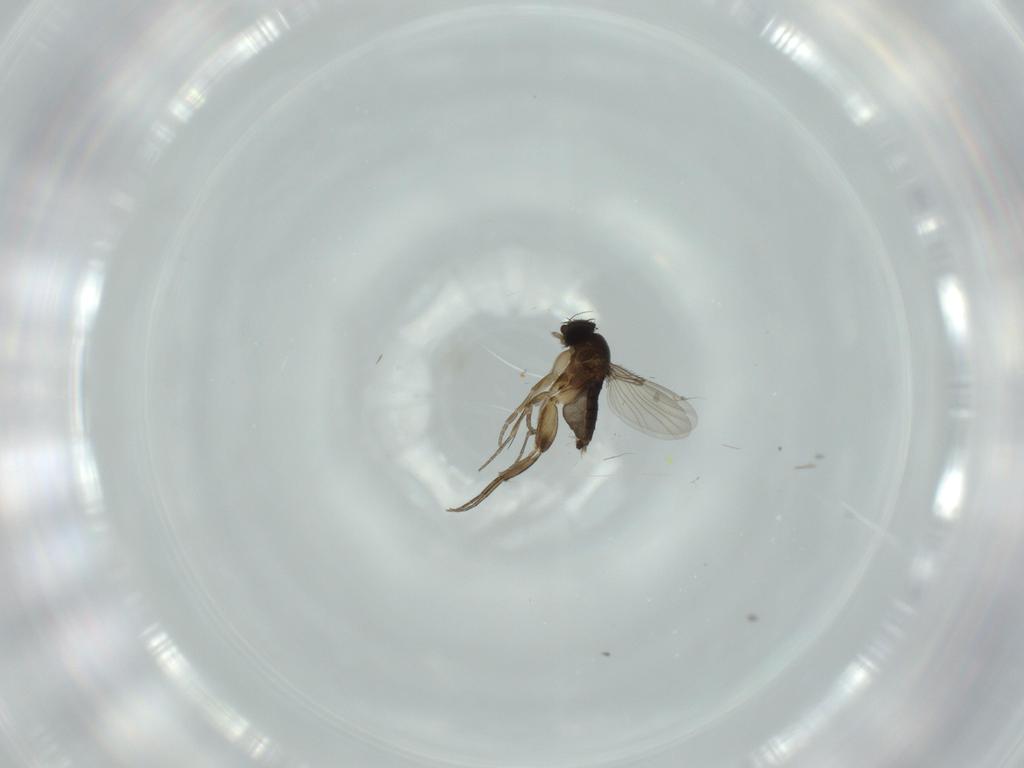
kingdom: Animalia
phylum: Arthropoda
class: Insecta
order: Diptera
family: Phoridae
